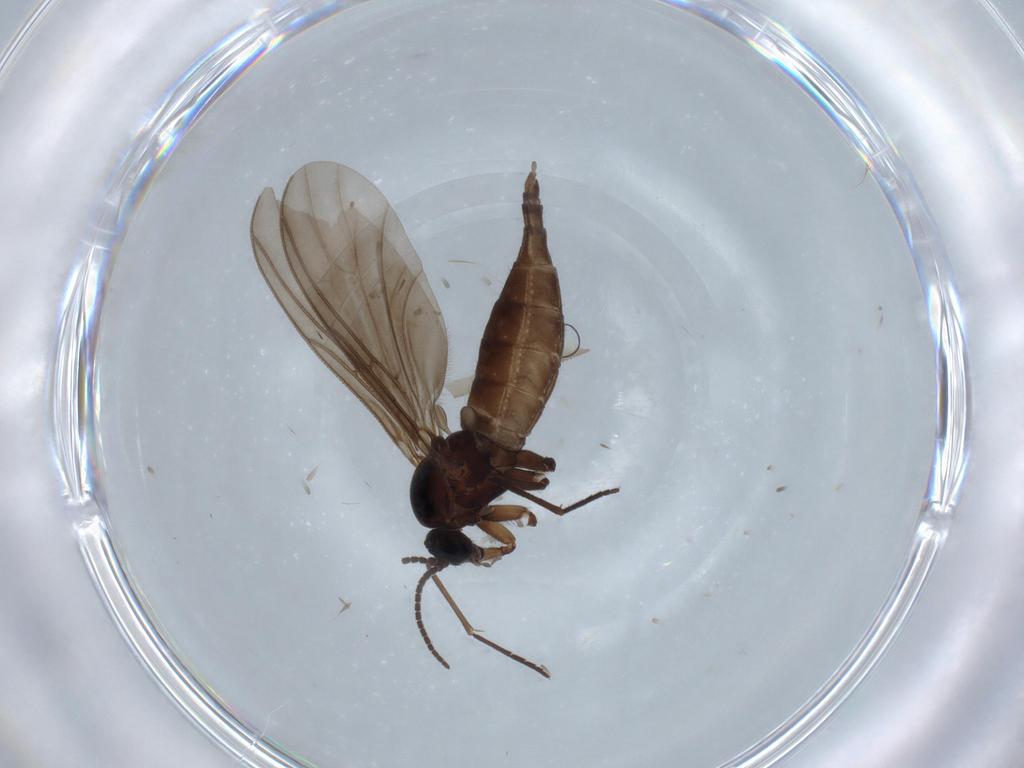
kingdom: Animalia
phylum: Arthropoda
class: Insecta
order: Diptera
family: Sciaridae
